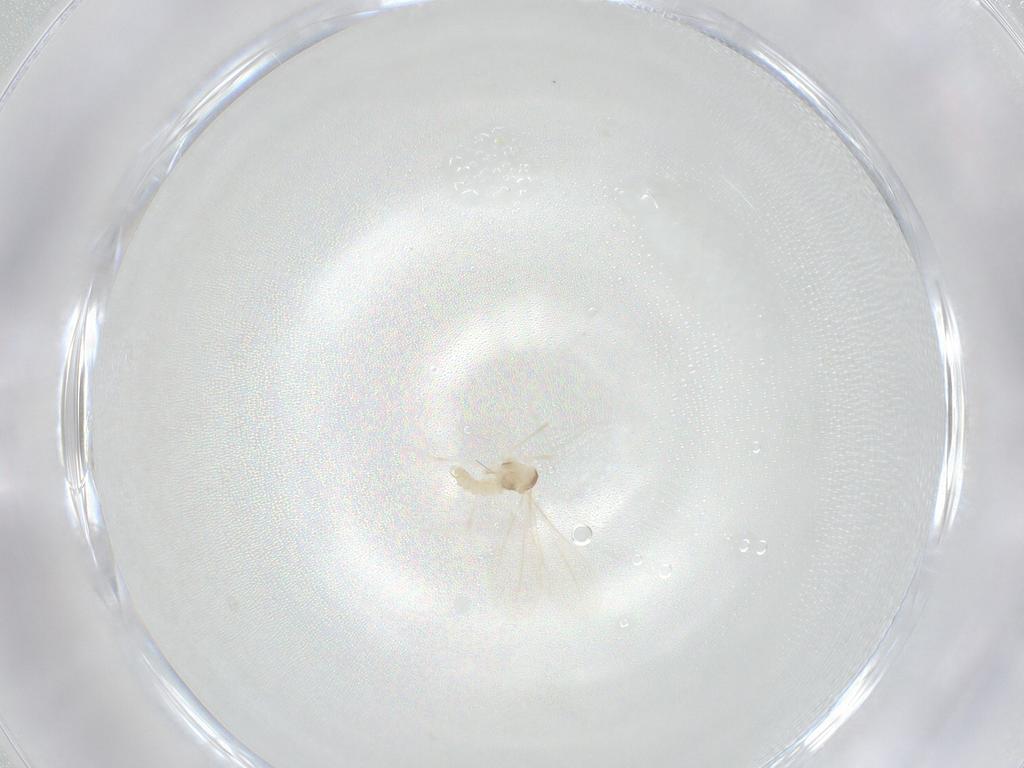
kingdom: Animalia
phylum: Arthropoda
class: Insecta
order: Diptera
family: Cecidomyiidae
